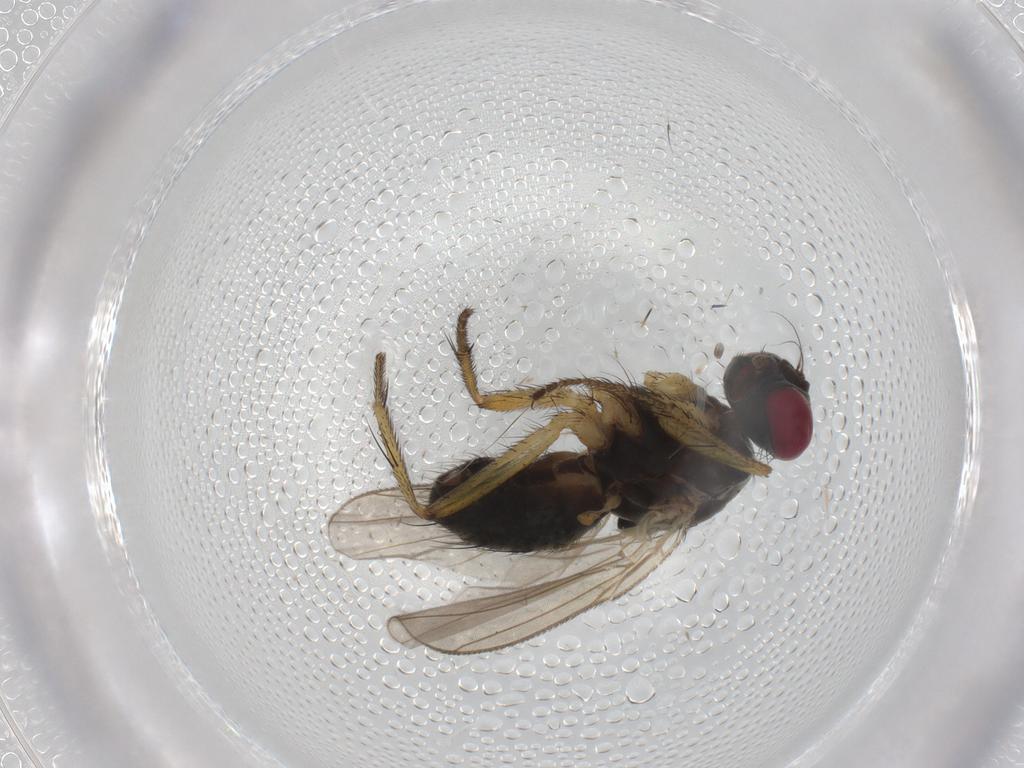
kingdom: Animalia
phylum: Arthropoda
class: Insecta
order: Diptera
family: Muscidae
